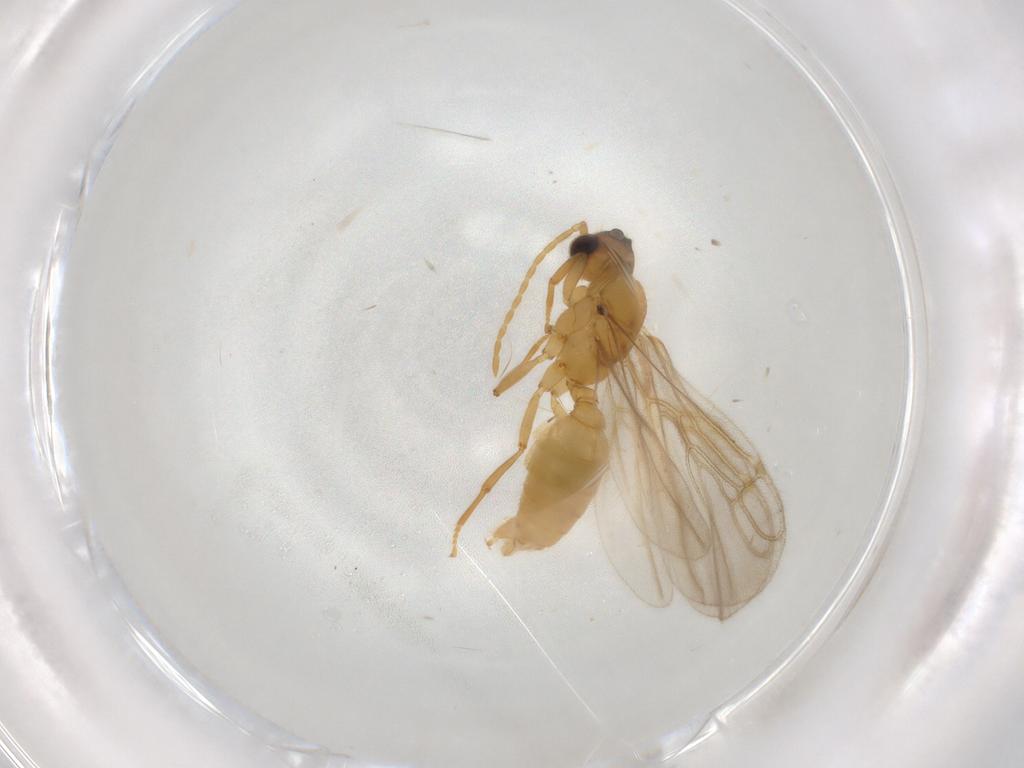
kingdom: Animalia
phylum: Arthropoda
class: Insecta
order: Hymenoptera
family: Formicidae
